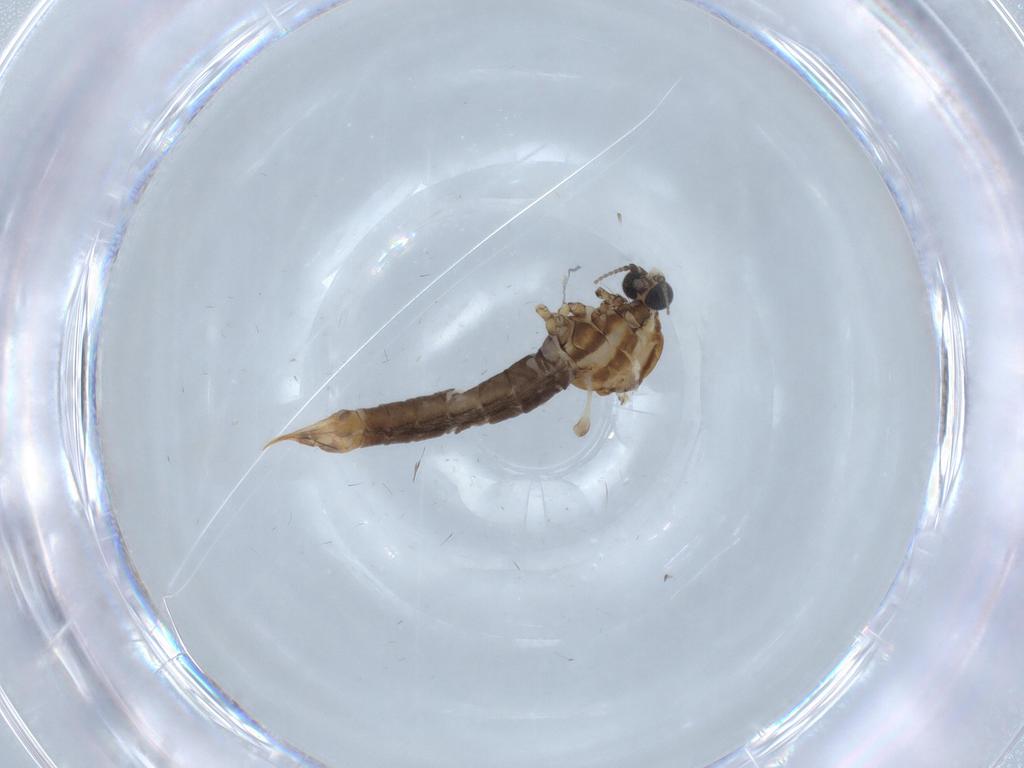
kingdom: Animalia
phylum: Arthropoda
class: Insecta
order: Diptera
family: Limoniidae
